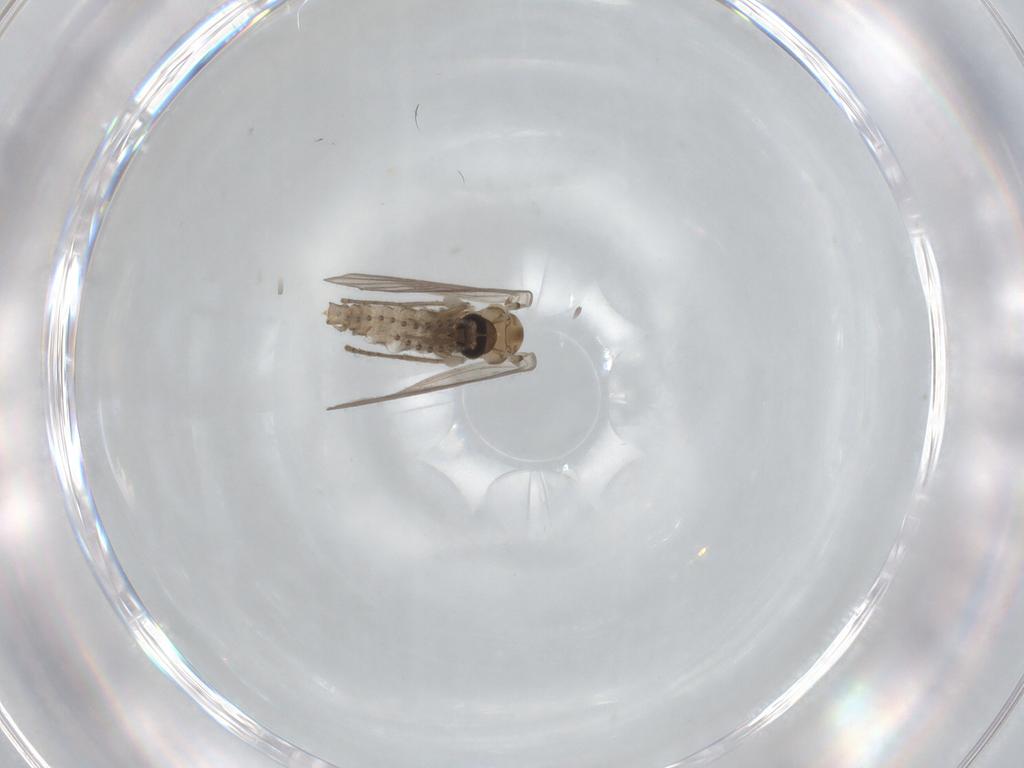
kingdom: Animalia
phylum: Arthropoda
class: Insecta
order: Diptera
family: Psychodidae
